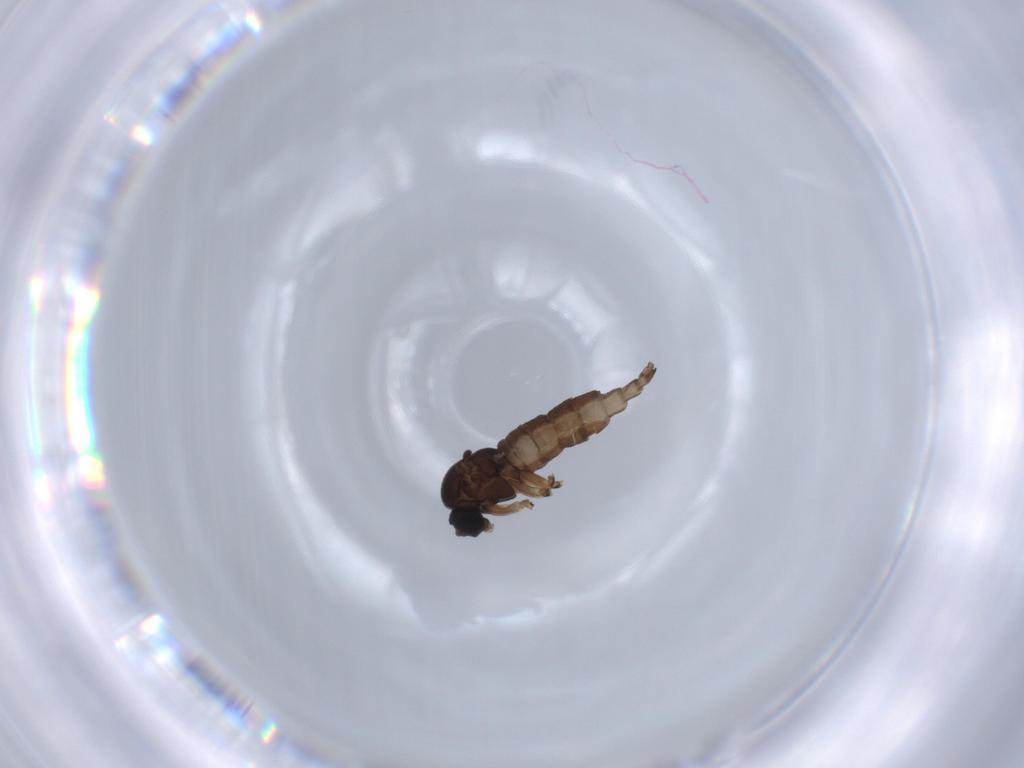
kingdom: Animalia
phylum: Arthropoda
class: Insecta
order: Diptera
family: Sciaridae
